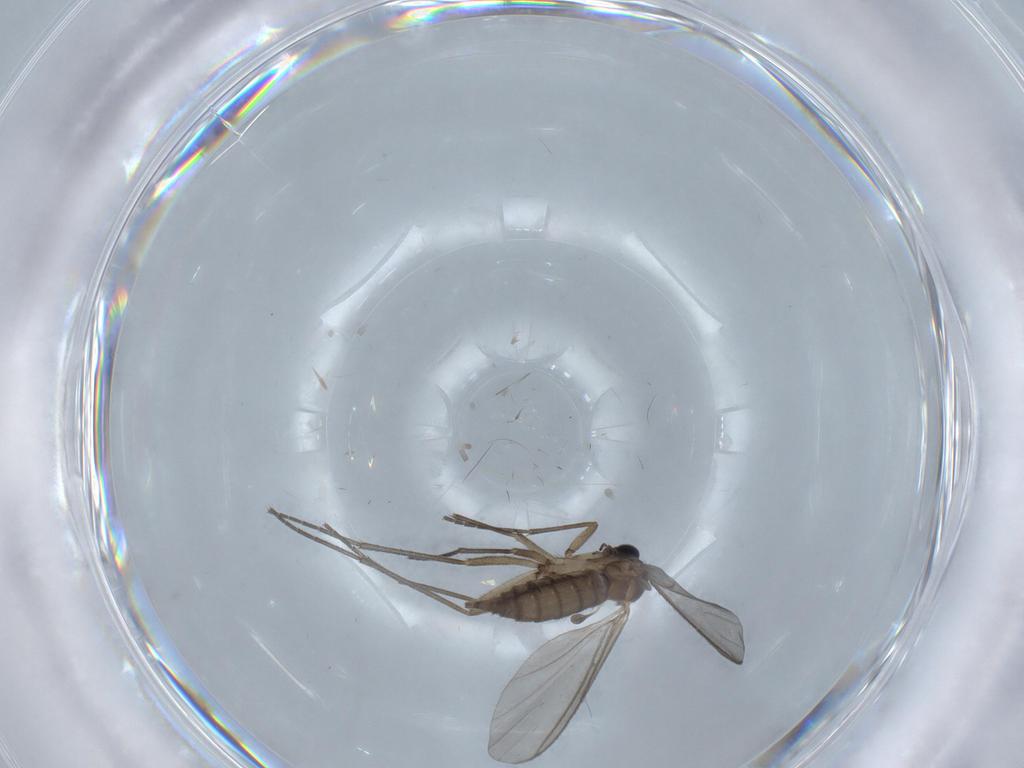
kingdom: Animalia
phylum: Arthropoda
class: Insecta
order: Diptera
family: Sciaridae
